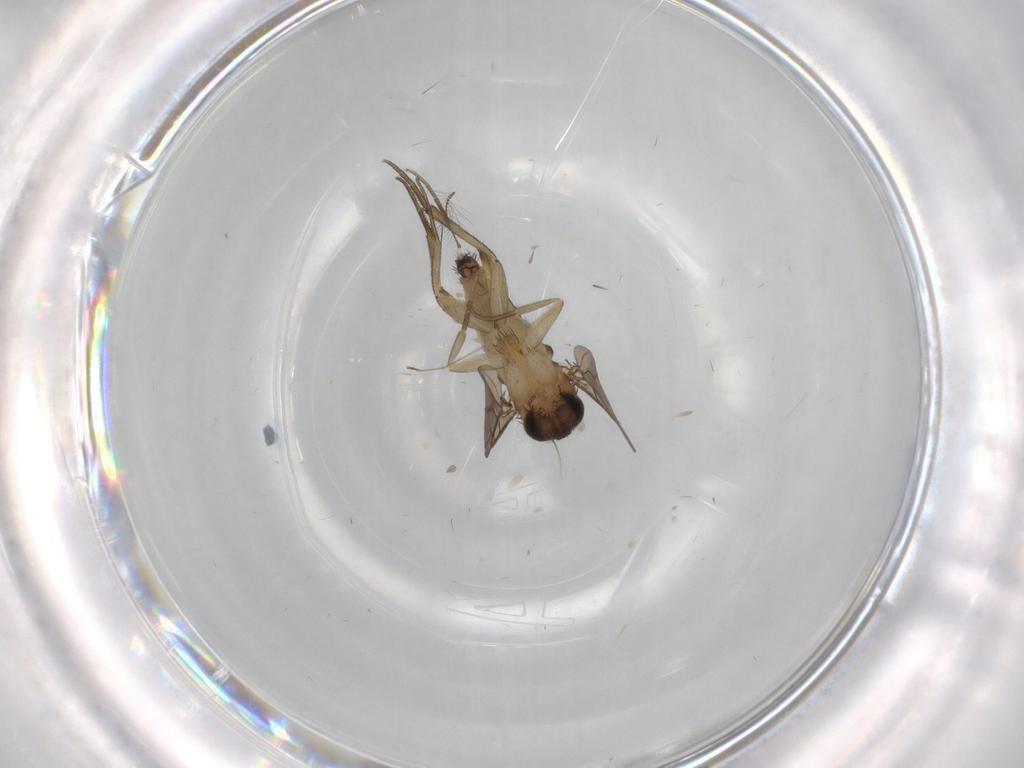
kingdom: Animalia
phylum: Arthropoda
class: Insecta
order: Diptera
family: Phoridae
